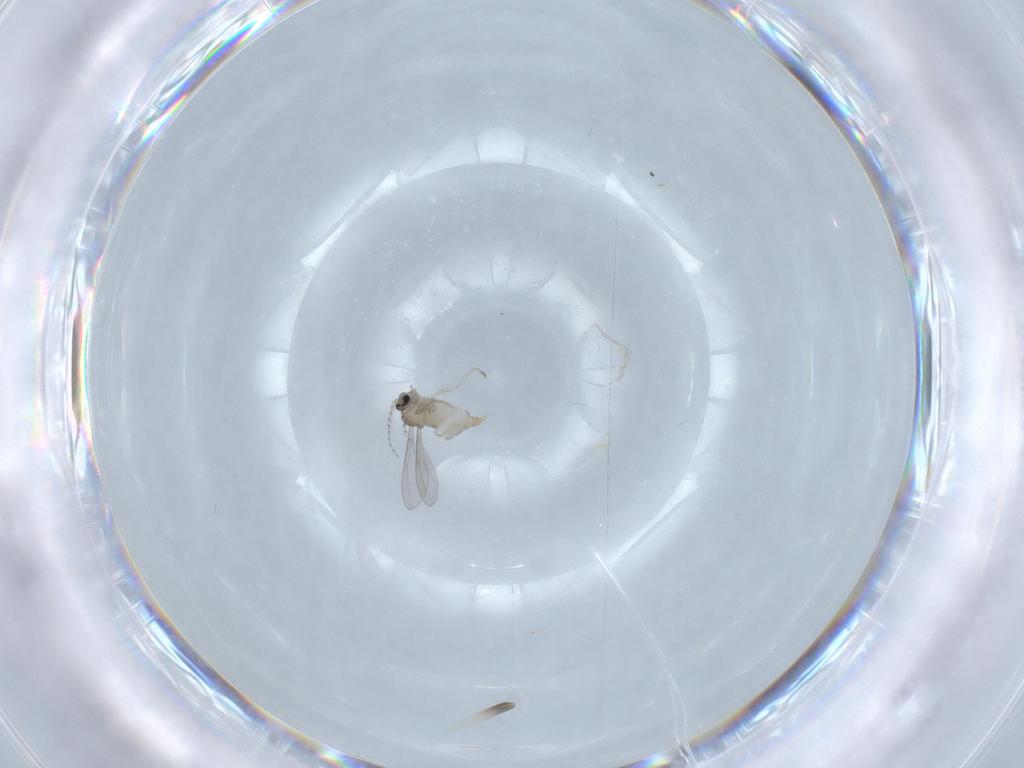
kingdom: Animalia
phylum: Arthropoda
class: Insecta
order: Diptera
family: Cecidomyiidae
